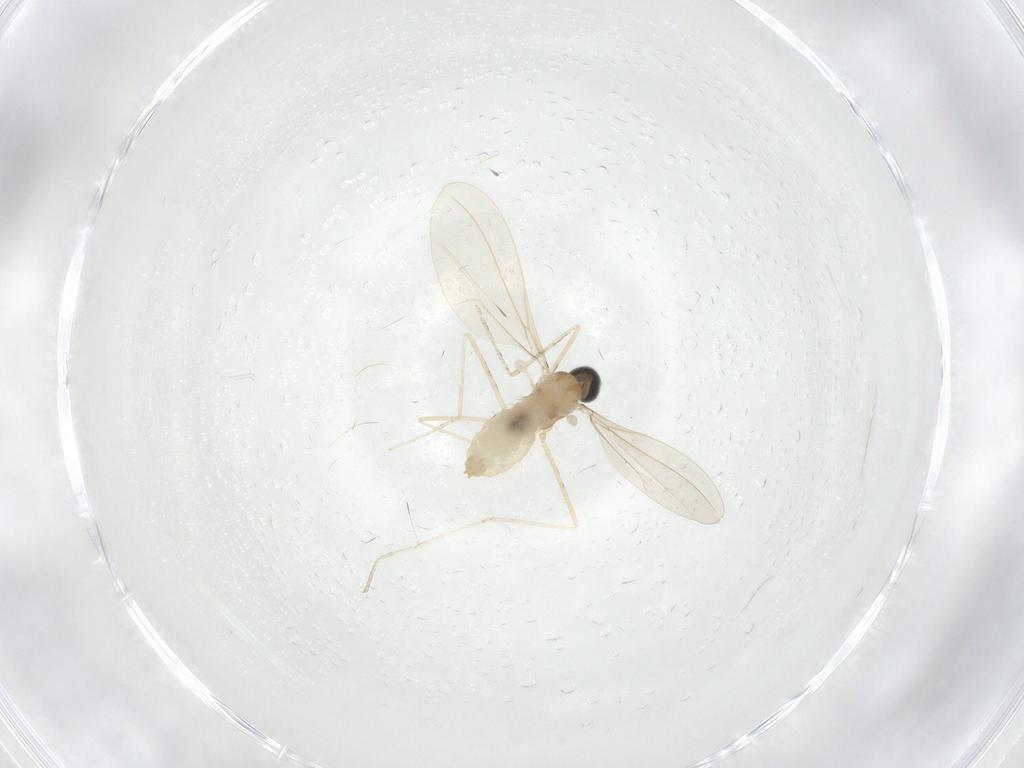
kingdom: Animalia
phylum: Arthropoda
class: Insecta
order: Diptera
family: Cecidomyiidae
